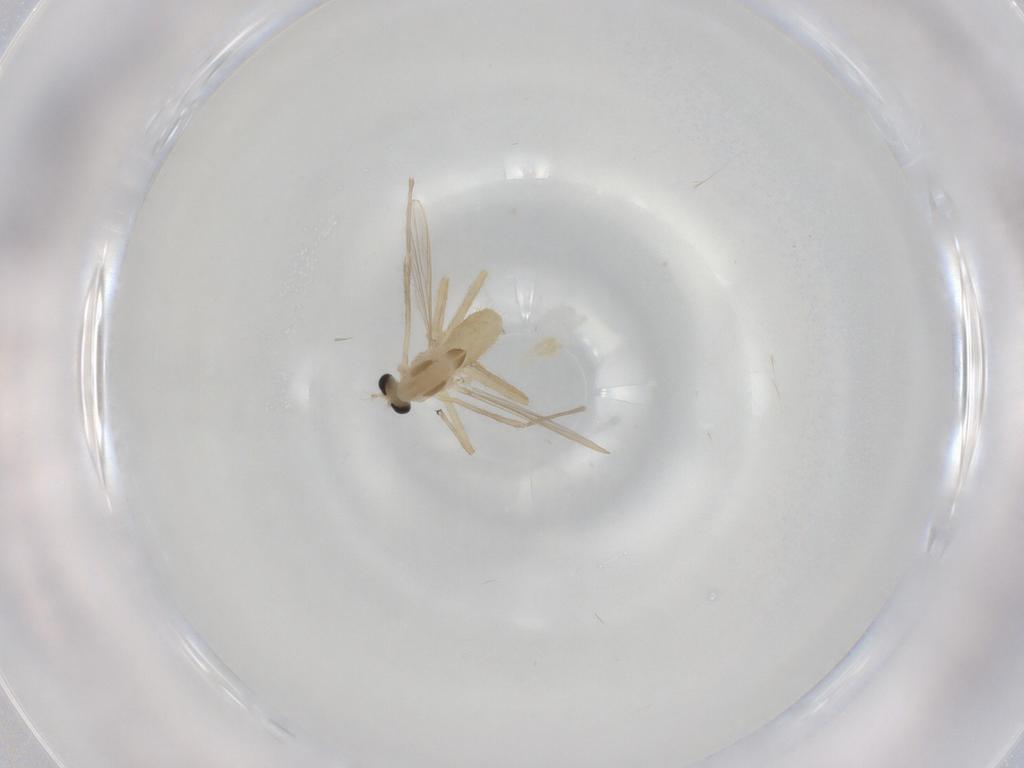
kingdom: Animalia
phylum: Arthropoda
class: Insecta
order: Diptera
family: Chironomidae
